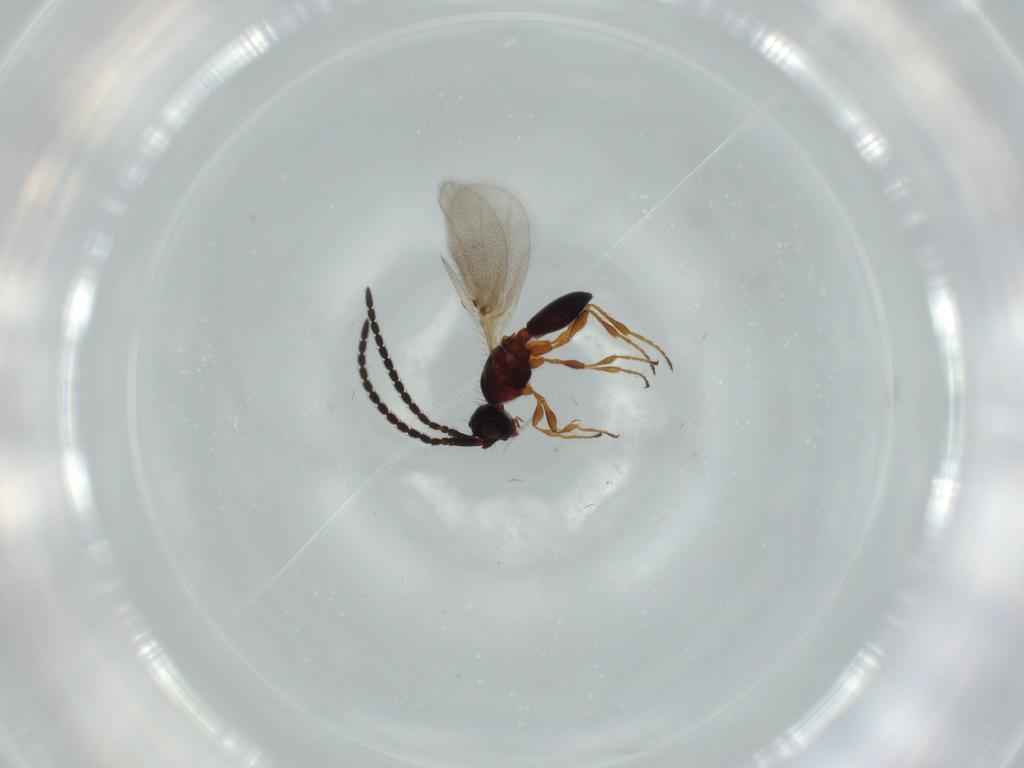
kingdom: Animalia
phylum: Arthropoda
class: Insecta
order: Hymenoptera
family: Diapriidae
